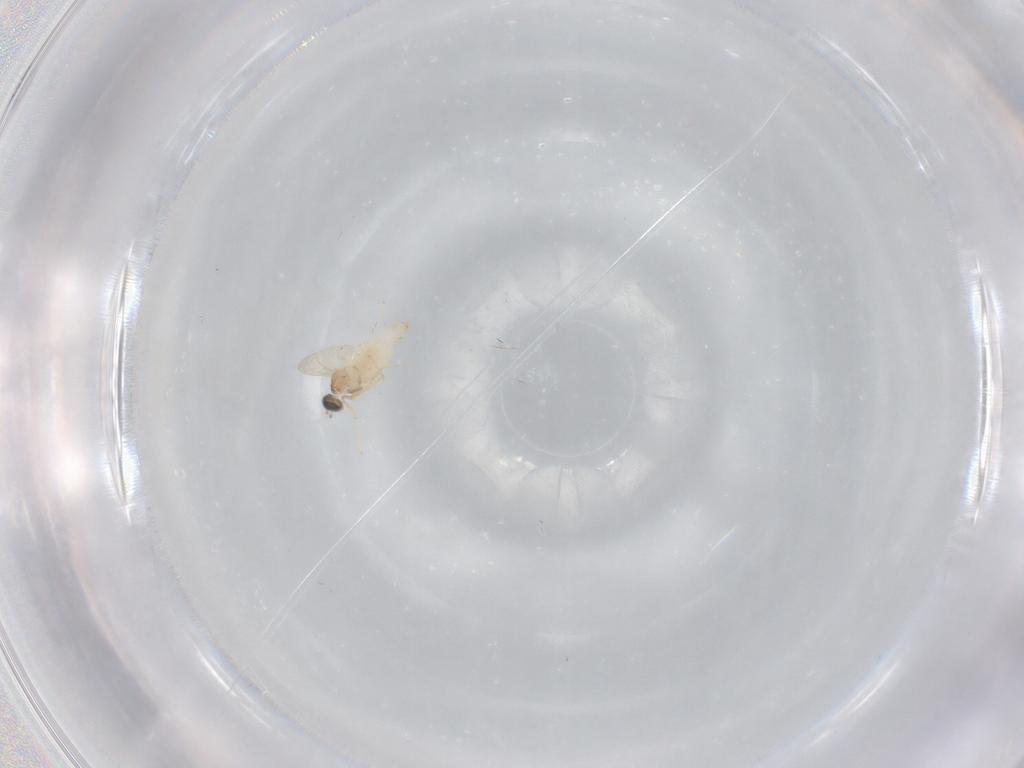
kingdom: Animalia
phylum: Arthropoda
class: Insecta
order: Diptera
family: Cecidomyiidae
